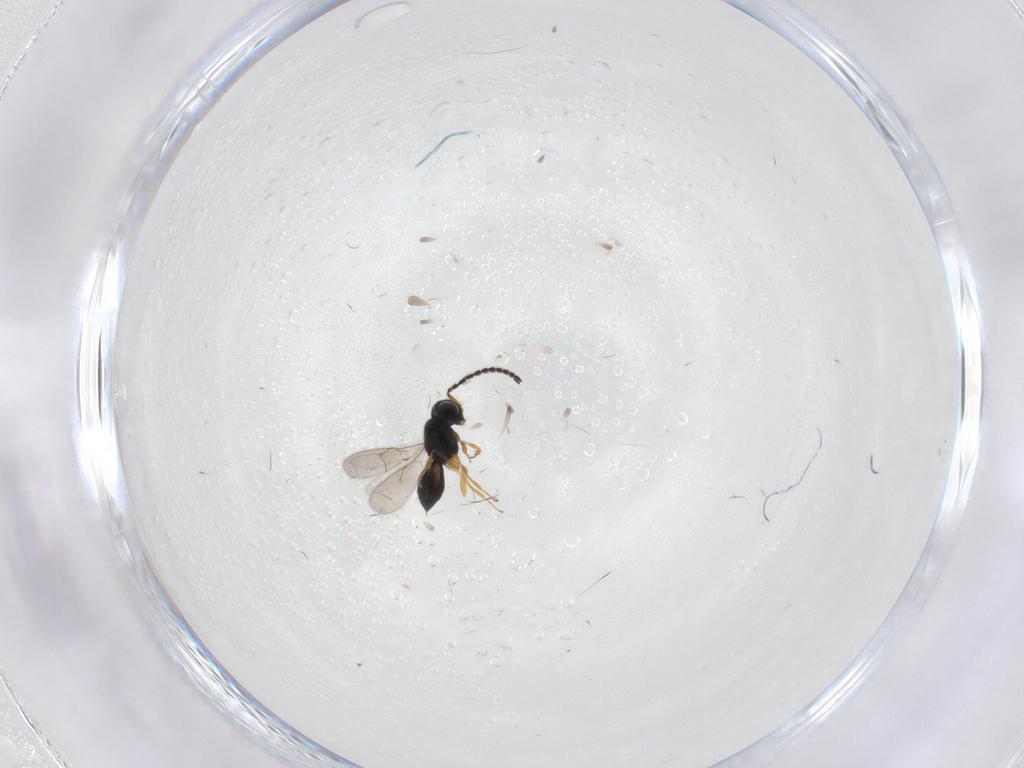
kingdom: Animalia
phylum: Arthropoda
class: Insecta
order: Hymenoptera
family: Scelionidae
